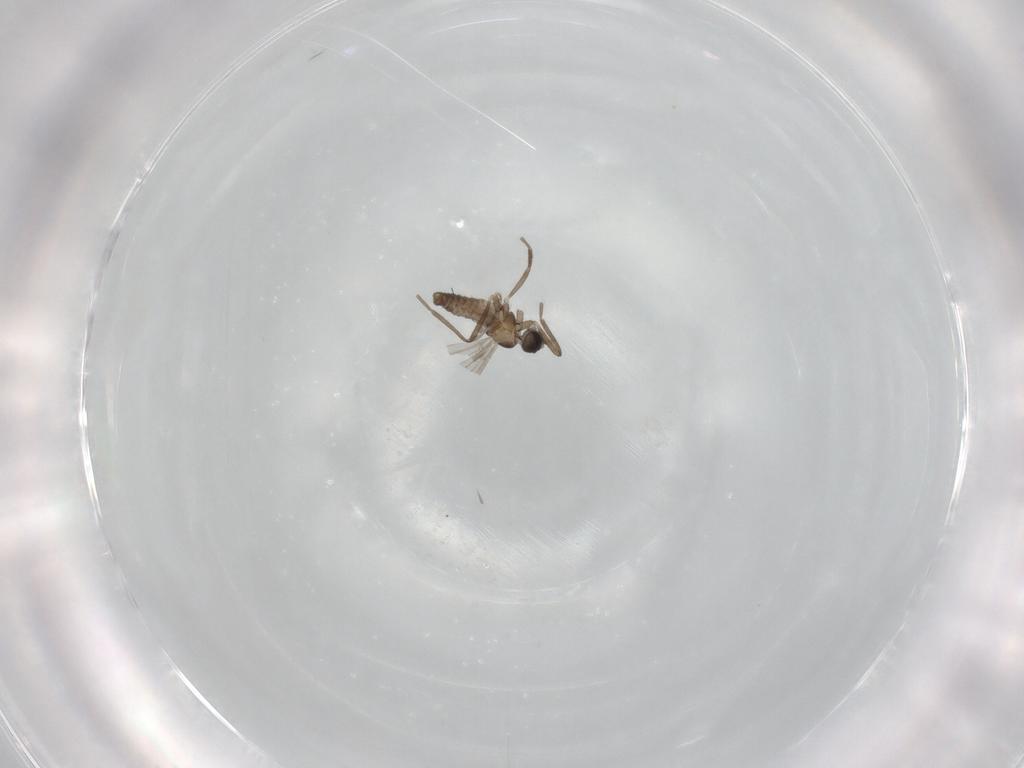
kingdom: Animalia
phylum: Arthropoda
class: Insecta
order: Diptera
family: Cecidomyiidae
